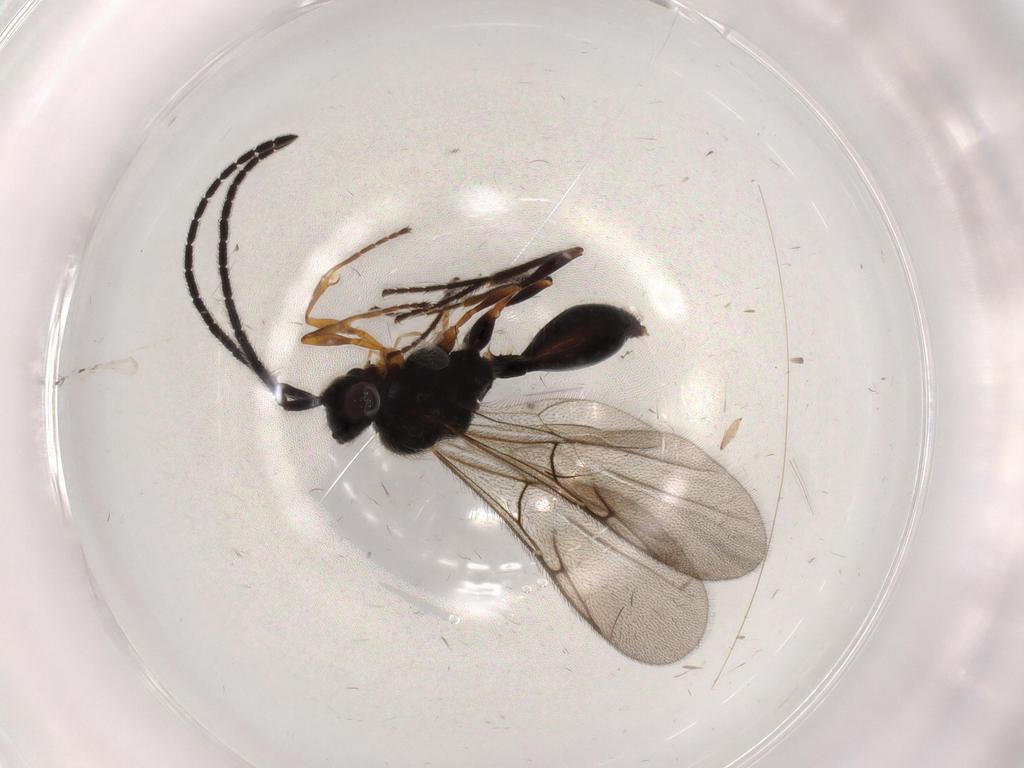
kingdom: Animalia
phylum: Arthropoda
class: Insecta
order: Hymenoptera
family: Diapriidae
